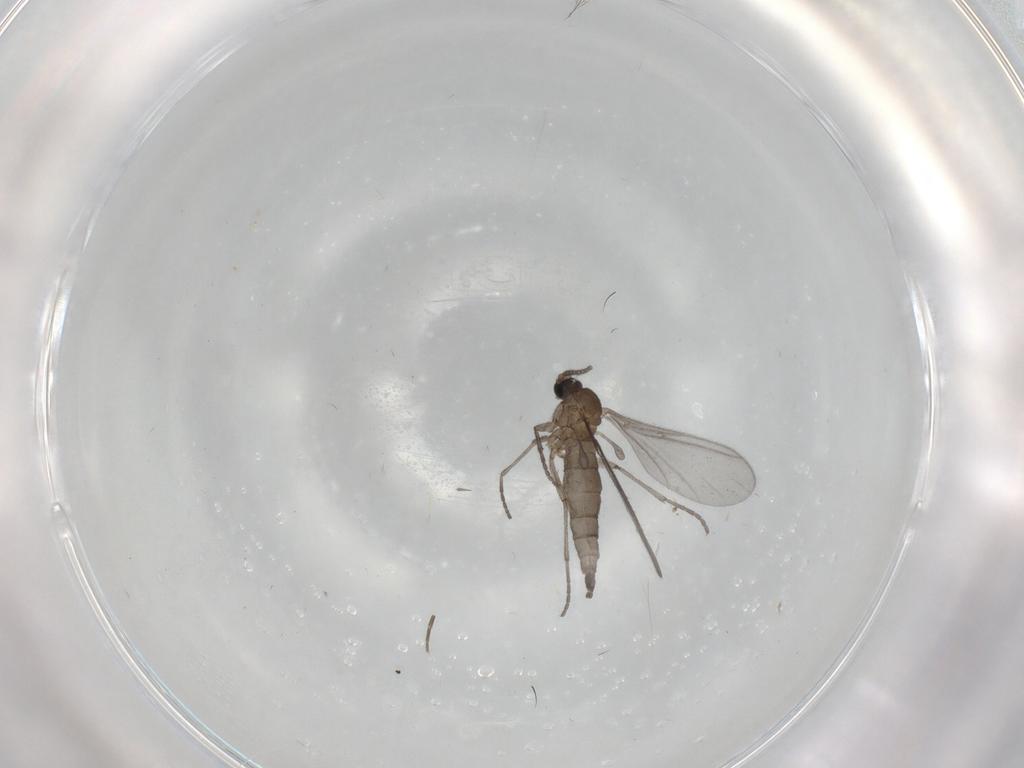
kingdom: Animalia
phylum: Arthropoda
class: Insecta
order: Diptera
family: Sciaridae
